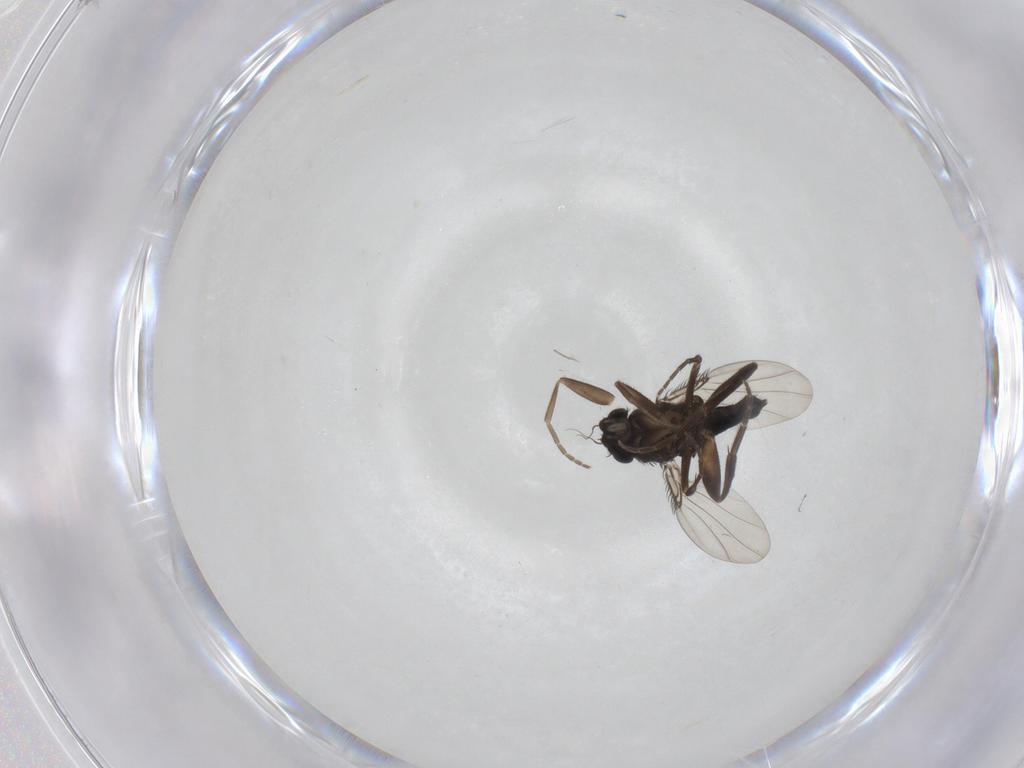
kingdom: Animalia
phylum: Arthropoda
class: Insecta
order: Diptera
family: Phoridae
